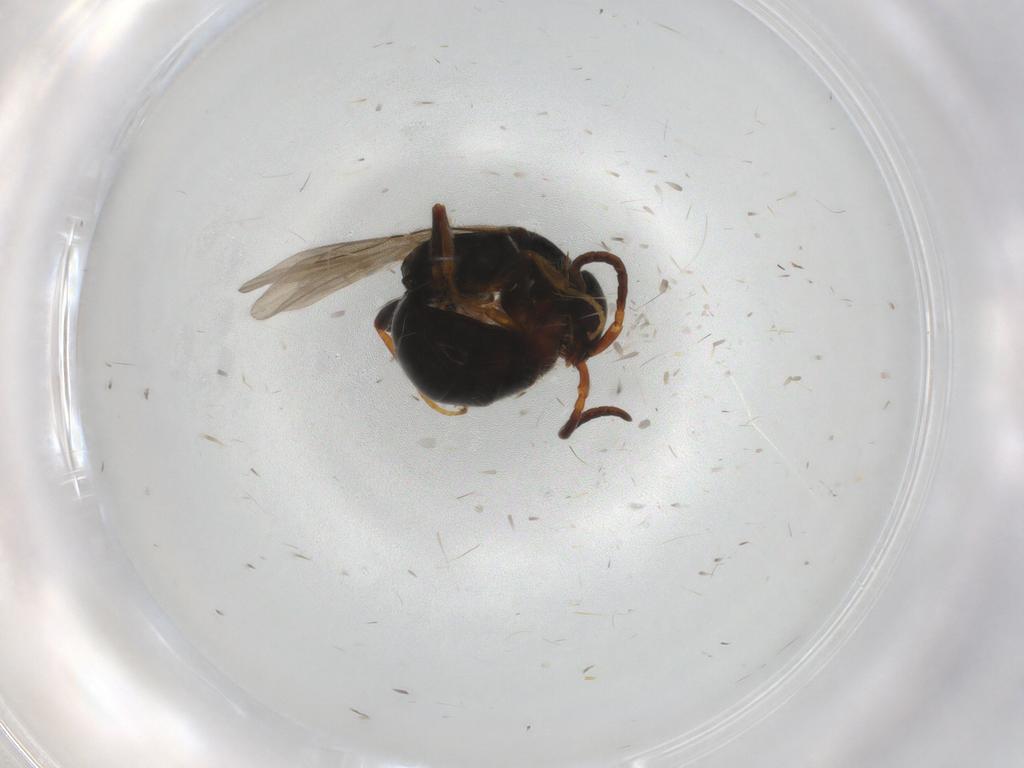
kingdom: Animalia
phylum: Arthropoda
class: Insecta
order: Hymenoptera
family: Bethylidae
